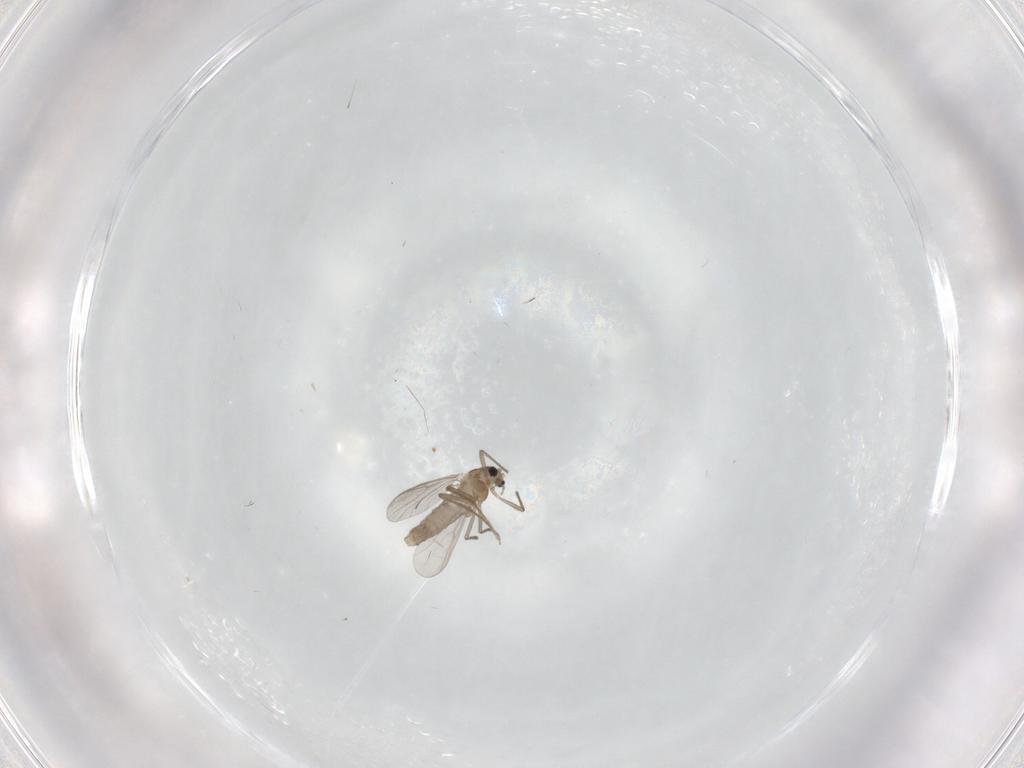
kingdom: Animalia
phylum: Arthropoda
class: Insecta
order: Diptera
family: Chironomidae
